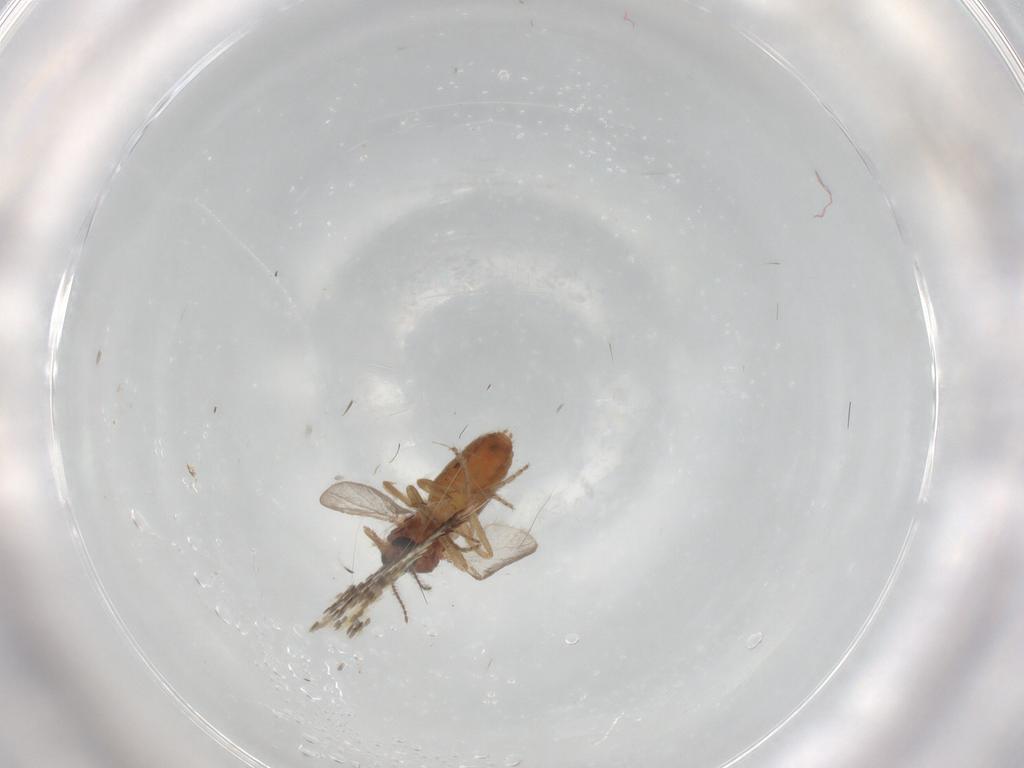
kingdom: Animalia
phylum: Arthropoda
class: Insecta
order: Diptera
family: Ceratopogonidae
